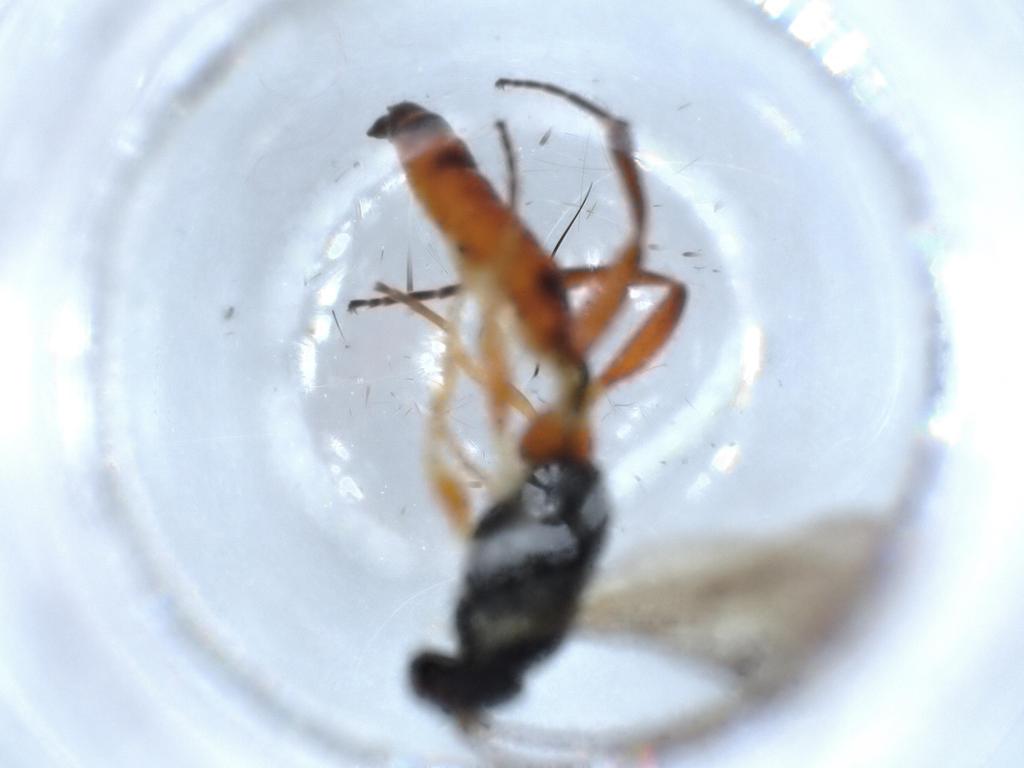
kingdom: Animalia
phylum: Arthropoda
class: Insecta
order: Hymenoptera
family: Ichneumonidae
